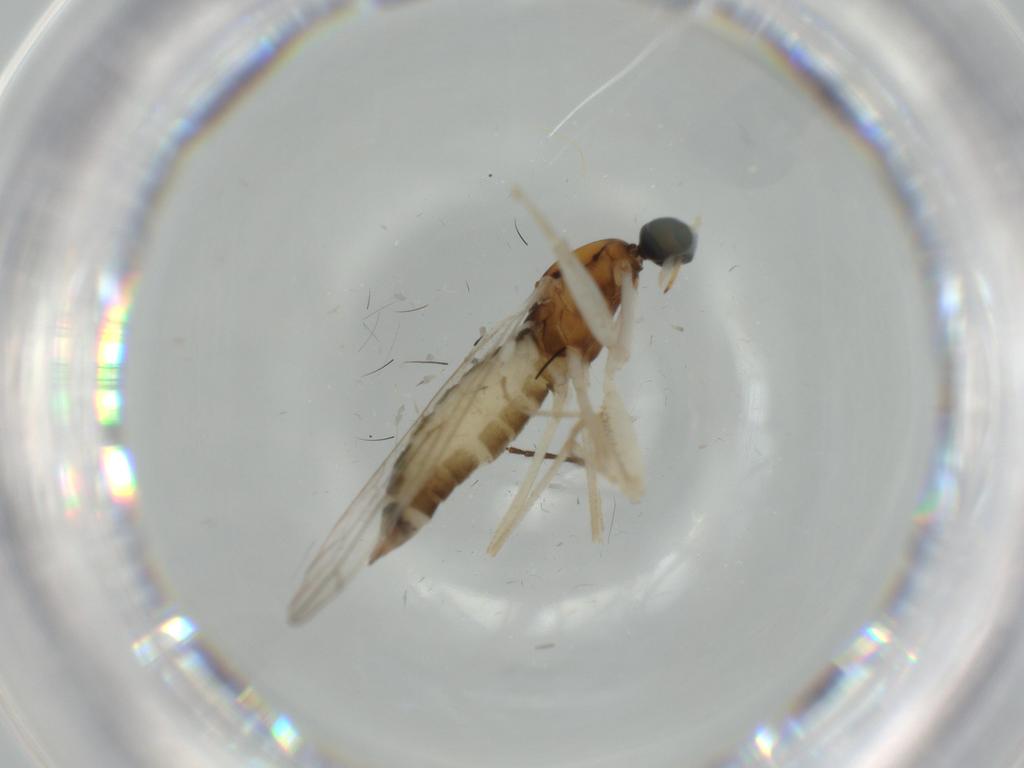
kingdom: Animalia
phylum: Arthropoda
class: Insecta
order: Diptera
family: Empididae
